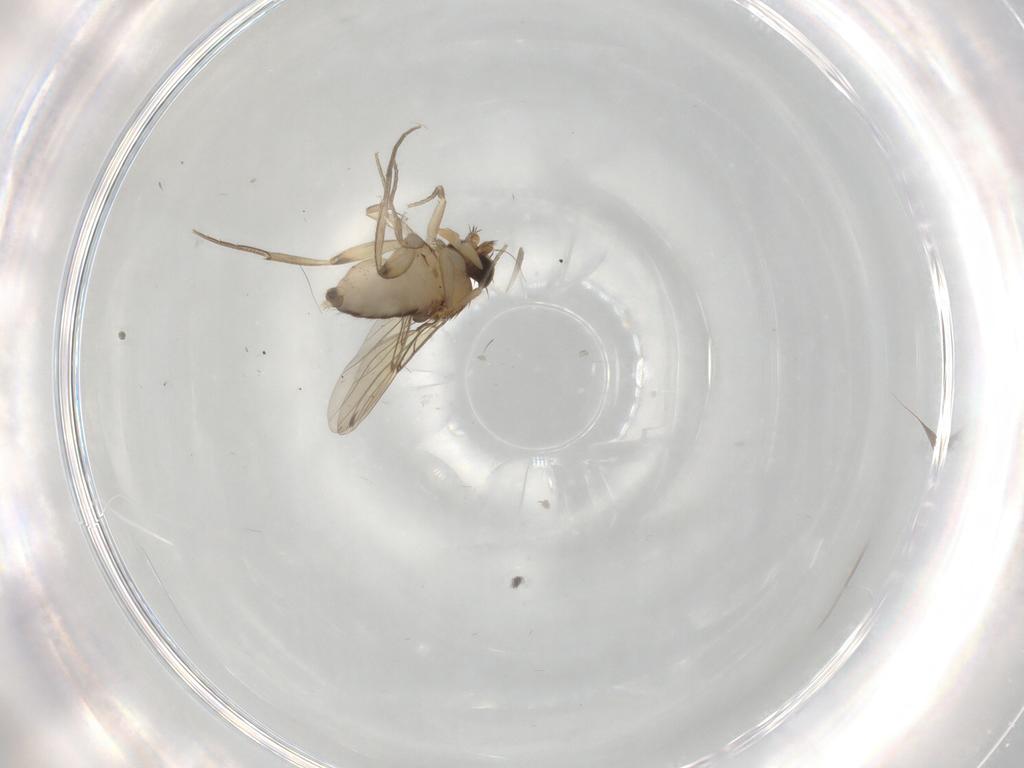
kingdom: Animalia
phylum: Arthropoda
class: Insecta
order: Diptera
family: Phoridae
